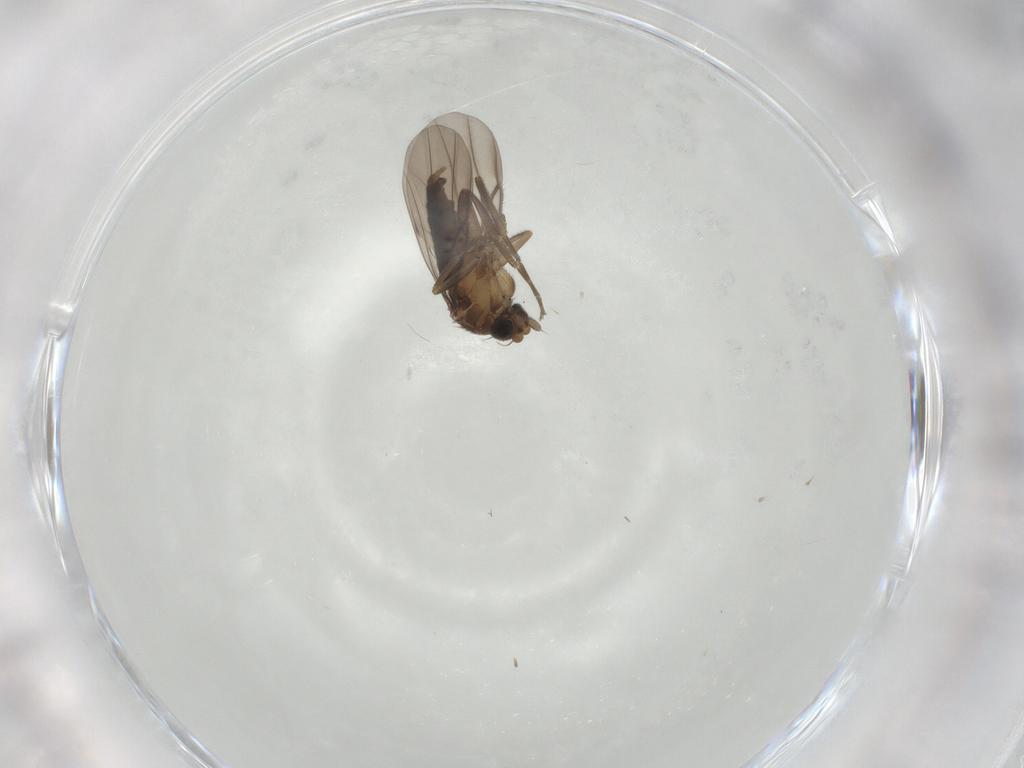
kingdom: Animalia
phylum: Arthropoda
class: Insecta
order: Diptera
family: Phoridae
